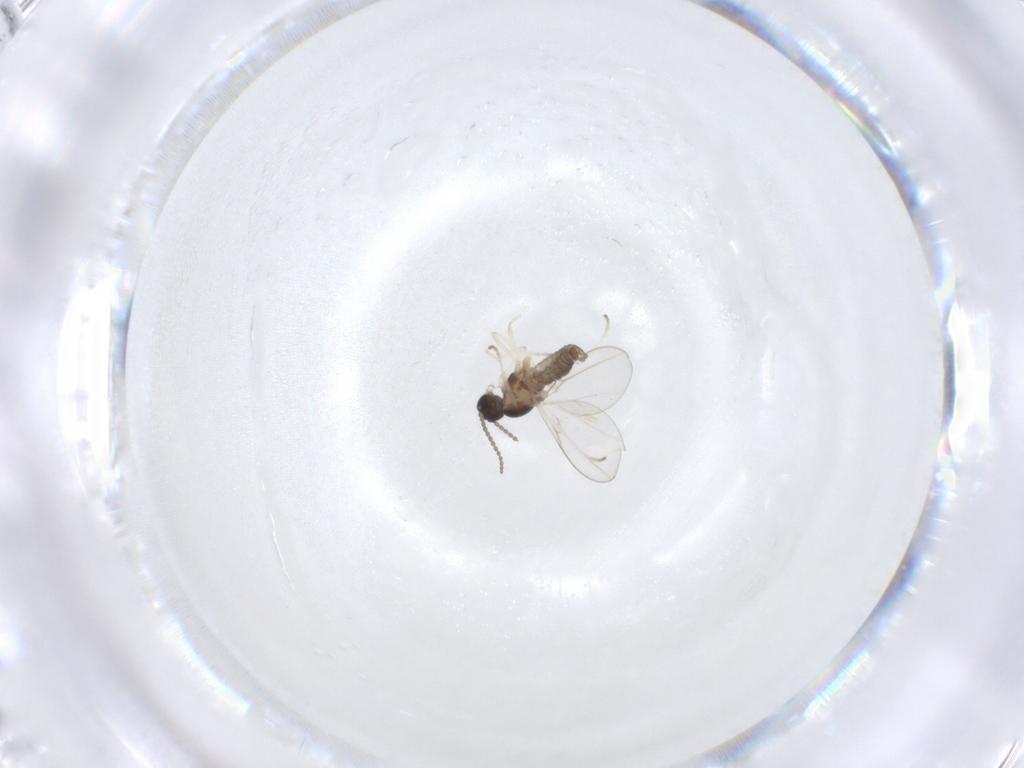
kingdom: Animalia
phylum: Arthropoda
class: Insecta
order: Diptera
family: Cecidomyiidae
